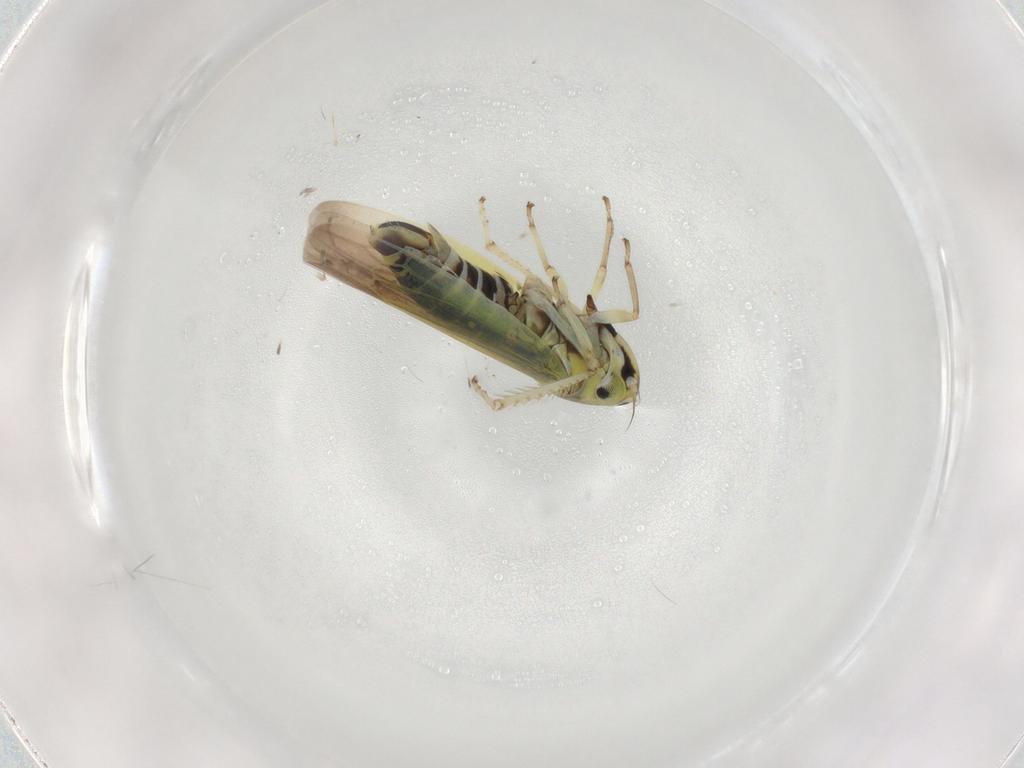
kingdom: Animalia
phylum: Arthropoda
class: Insecta
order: Hemiptera
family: Cicadellidae
